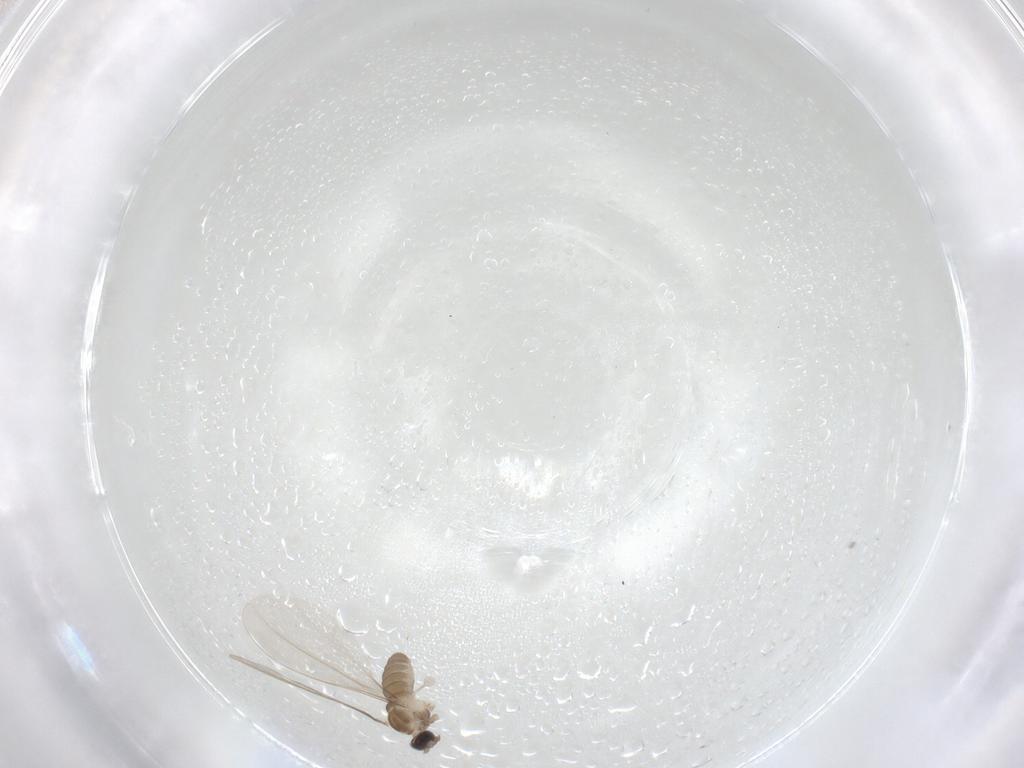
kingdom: Animalia
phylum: Arthropoda
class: Insecta
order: Diptera
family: Cecidomyiidae
